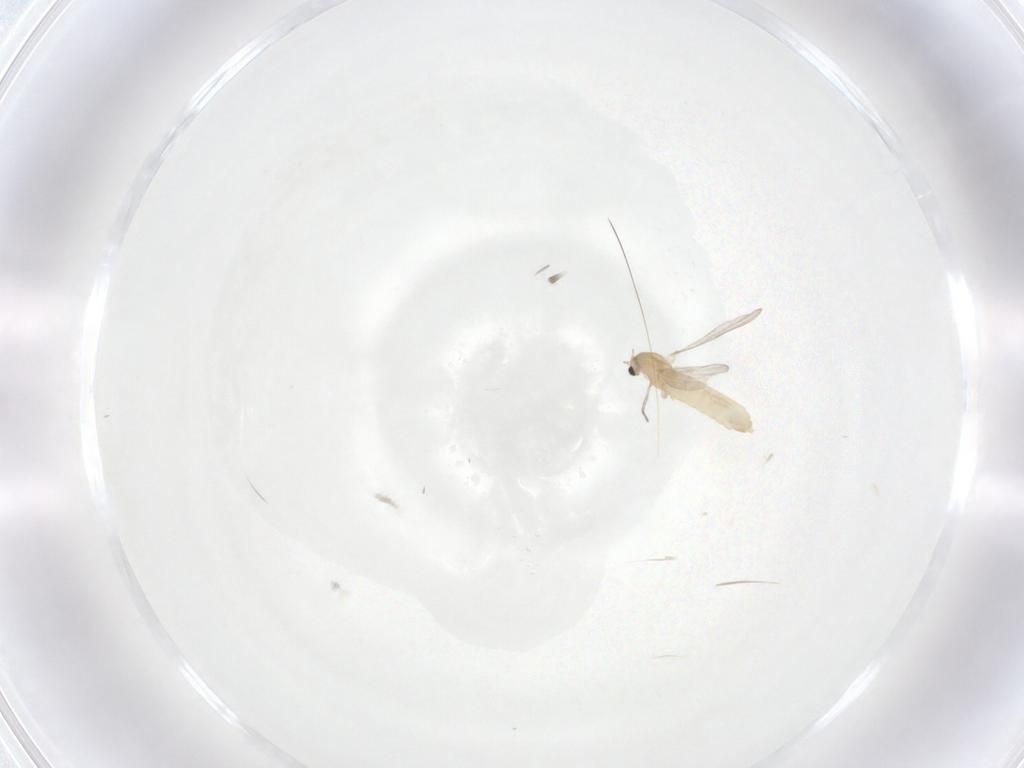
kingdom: Animalia
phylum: Arthropoda
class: Insecta
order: Diptera
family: Chironomidae
